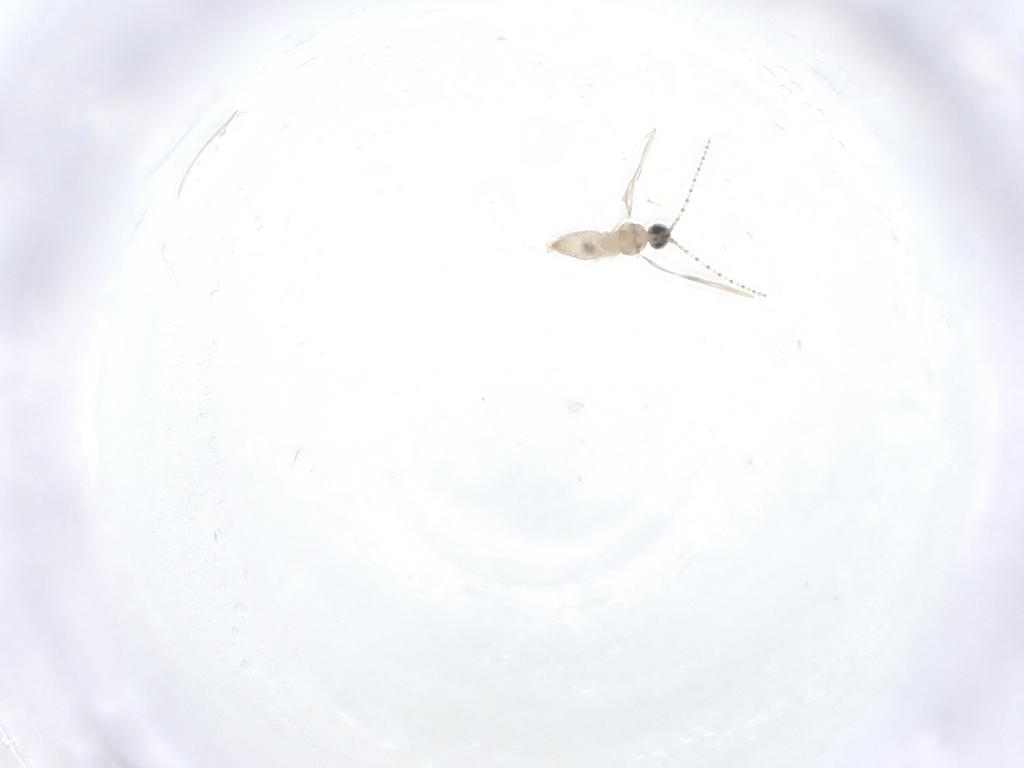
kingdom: Animalia
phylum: Arthropoda
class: Insecta
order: Diptera
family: Cecidomyiidae
